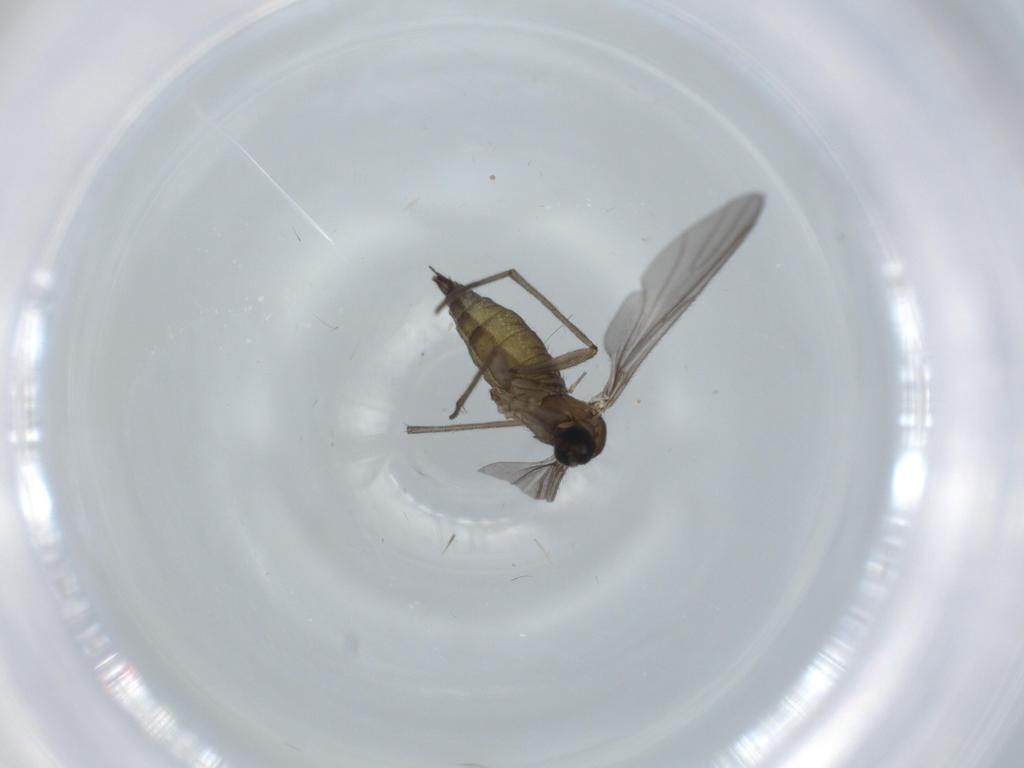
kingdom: Animalia
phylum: Arthropoda
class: Insecta
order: Diptera
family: Sciaridae
